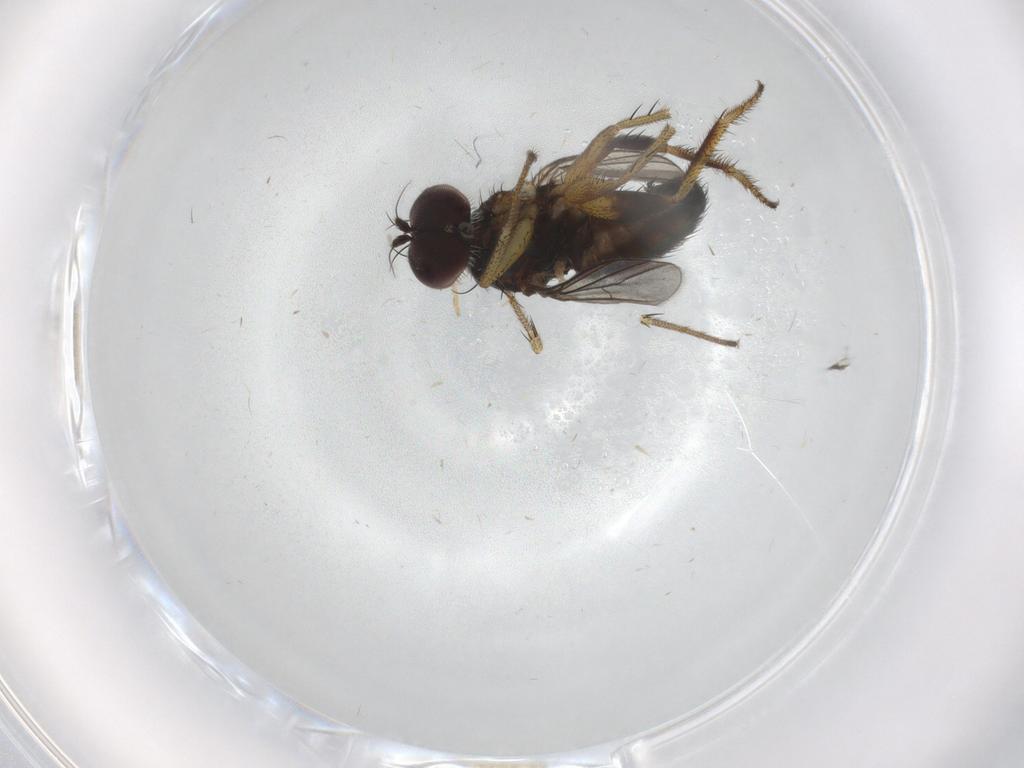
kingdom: Animalia
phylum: Arthropoda
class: Insecta
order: Diptera
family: Dolichopodidae
